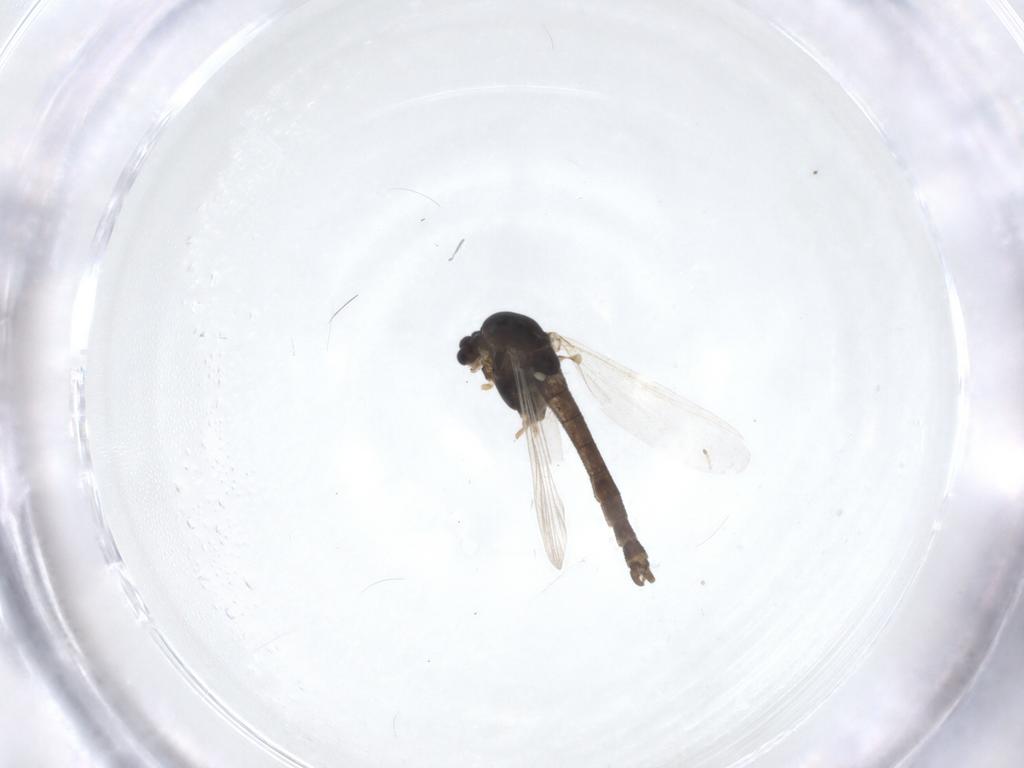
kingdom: Animalia
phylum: Arthropoda
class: Insecta
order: Diptera
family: Chironomidae
